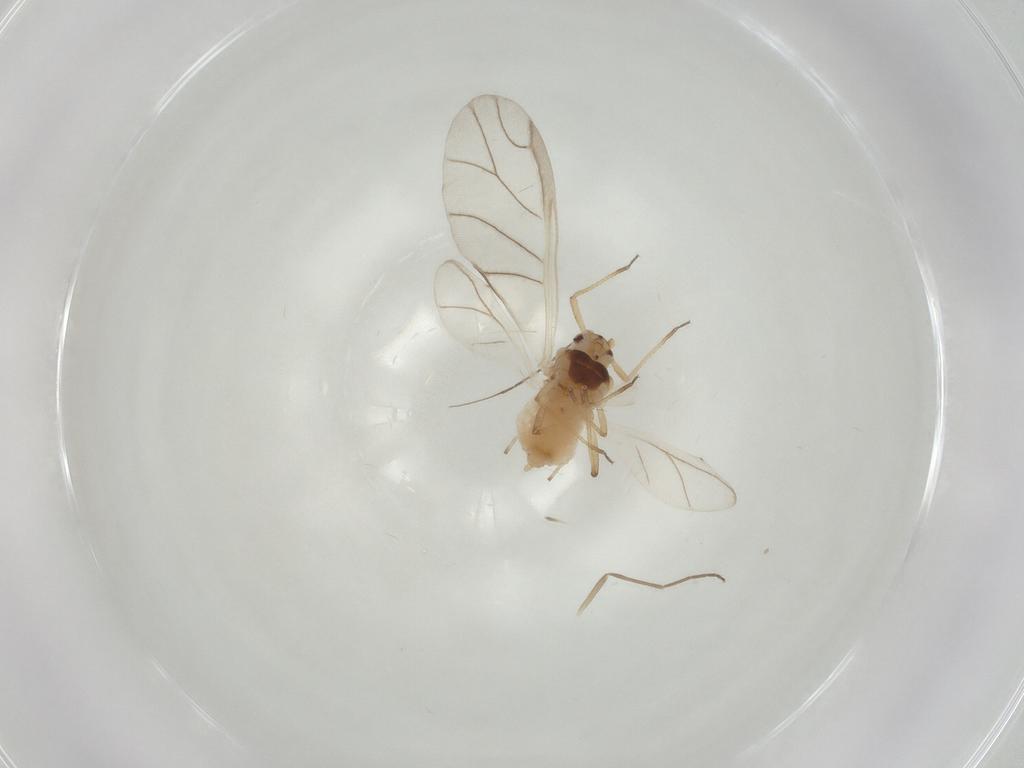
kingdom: Animalia
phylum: Arthropoda
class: Insecta
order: Hemiptera
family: Aphididae
